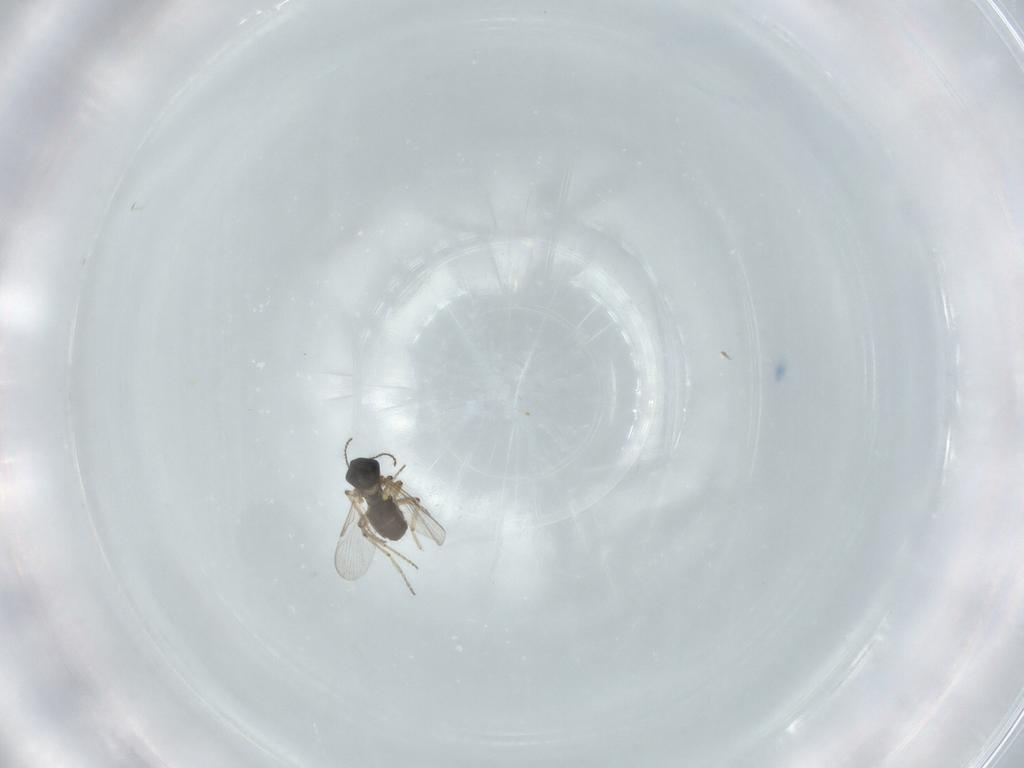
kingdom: Animalia
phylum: Arthropoda
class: Insecta
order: Diptera
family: Ceratopogonidae
